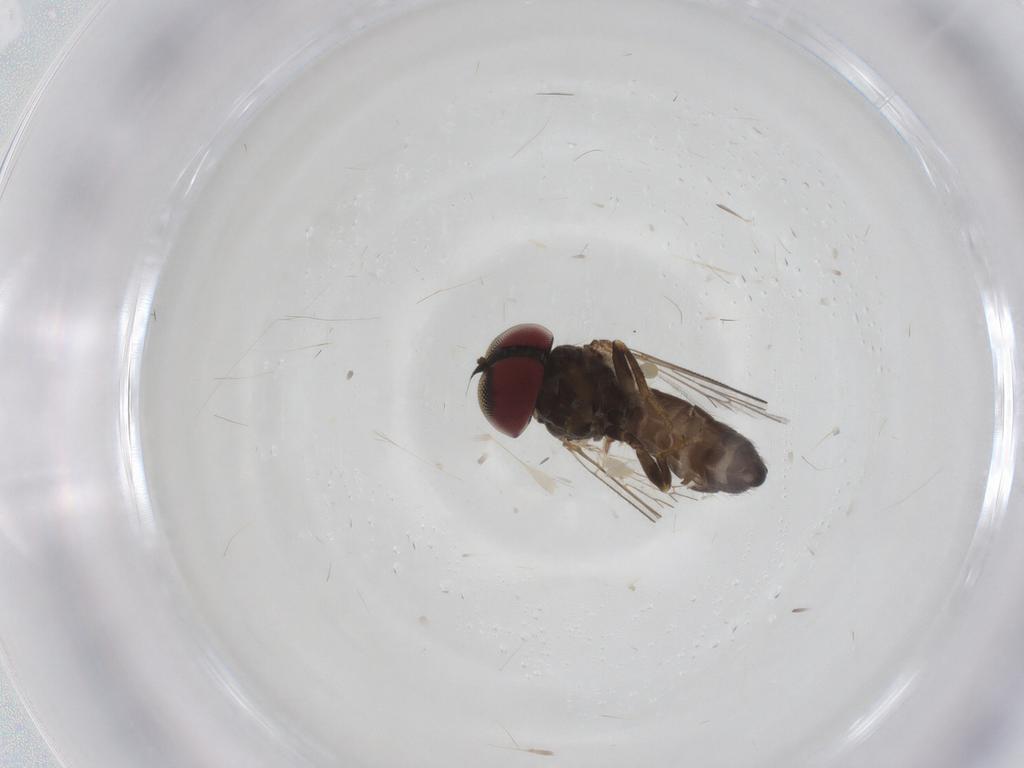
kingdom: Animalia
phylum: Arthropoda
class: Insecta
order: Diptera
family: Pipunculidae
